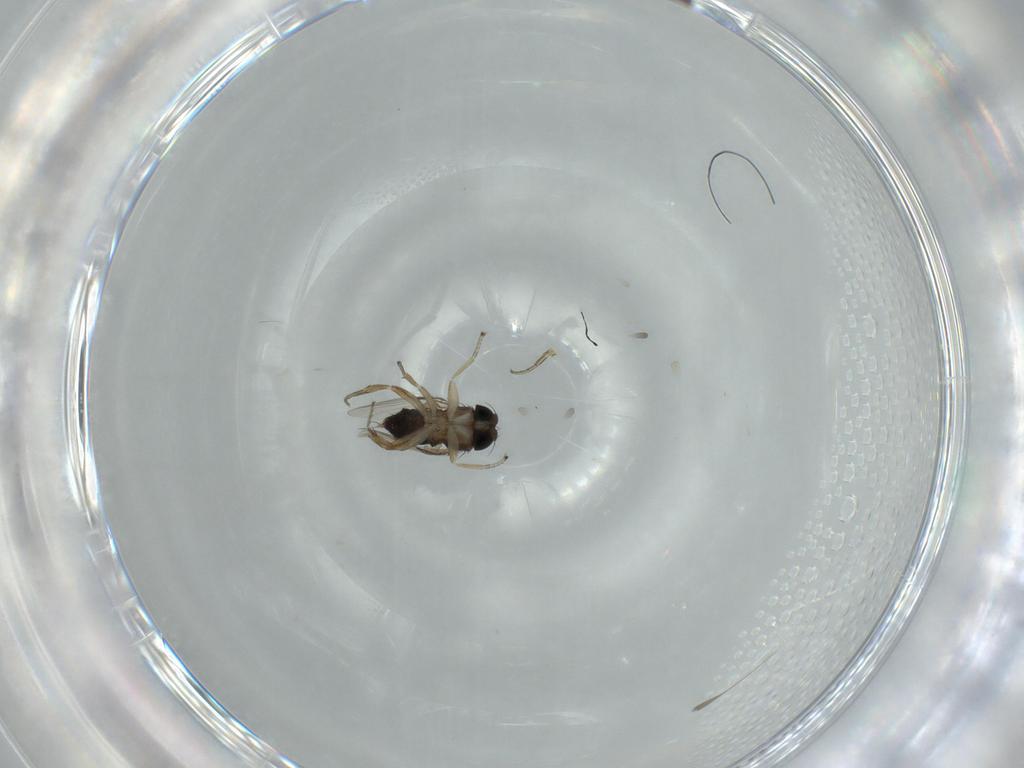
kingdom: Animalia
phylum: Arthropoda
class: Insecta
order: Diptera
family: Phoridae
